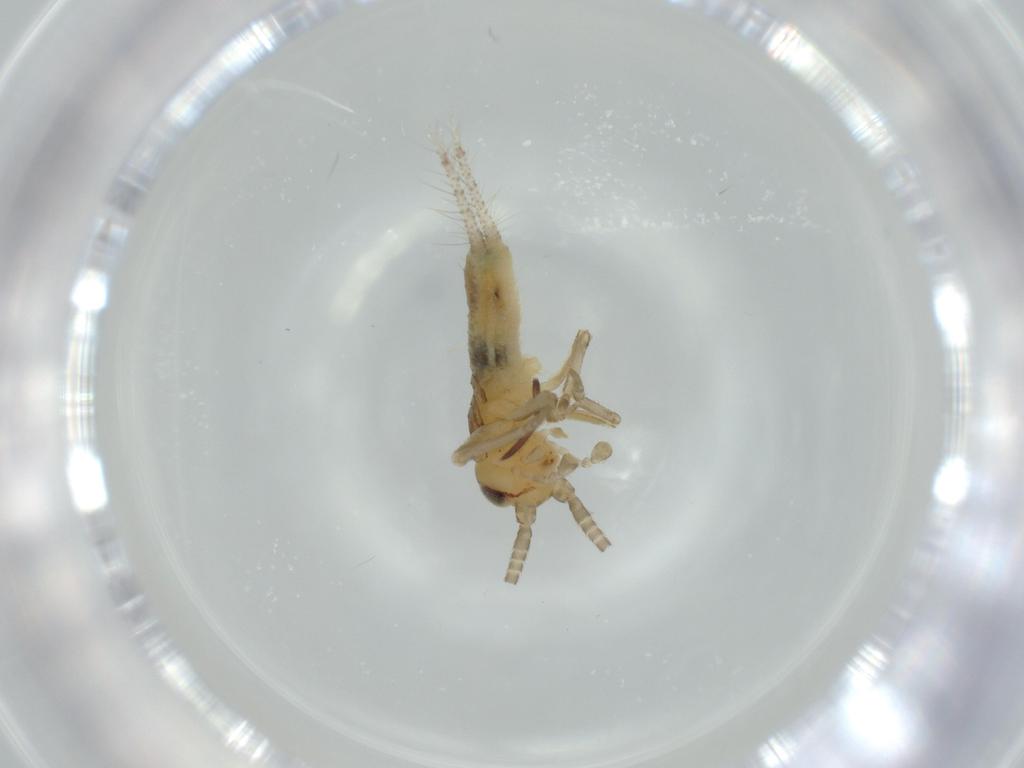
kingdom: Animalia
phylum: Arthropoda
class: Insecta
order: Orthoptera
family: Gryllidae
